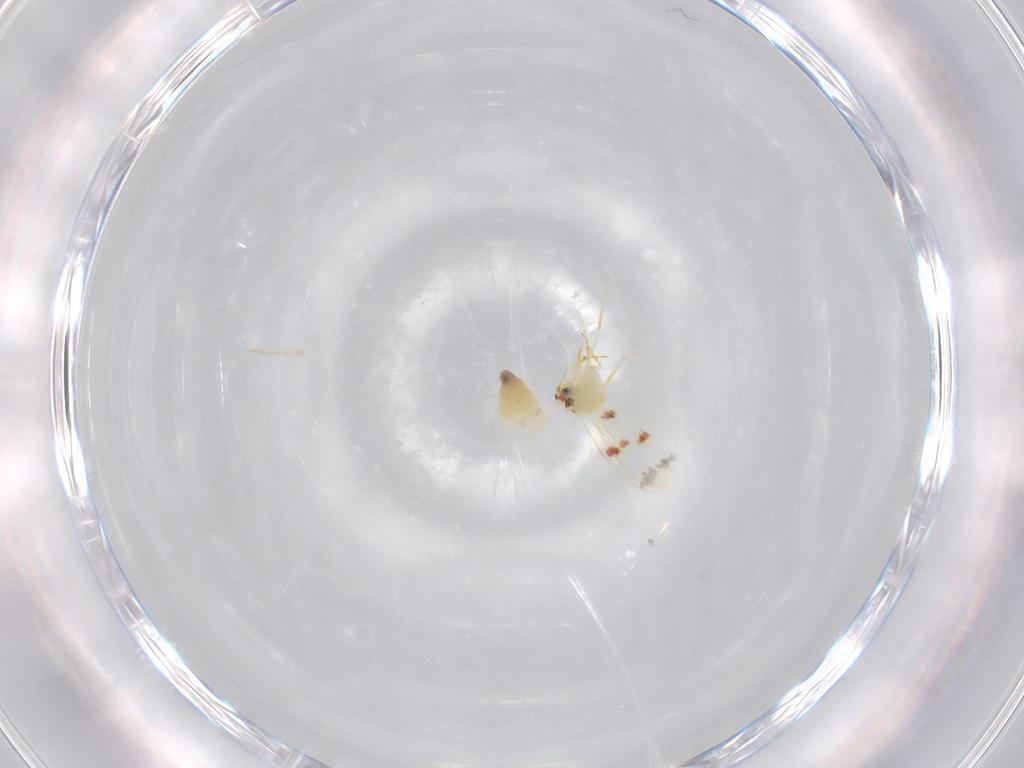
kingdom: Animalia
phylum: Arthropoda
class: Insecta
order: Hemiptera
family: Aleyrodidae
